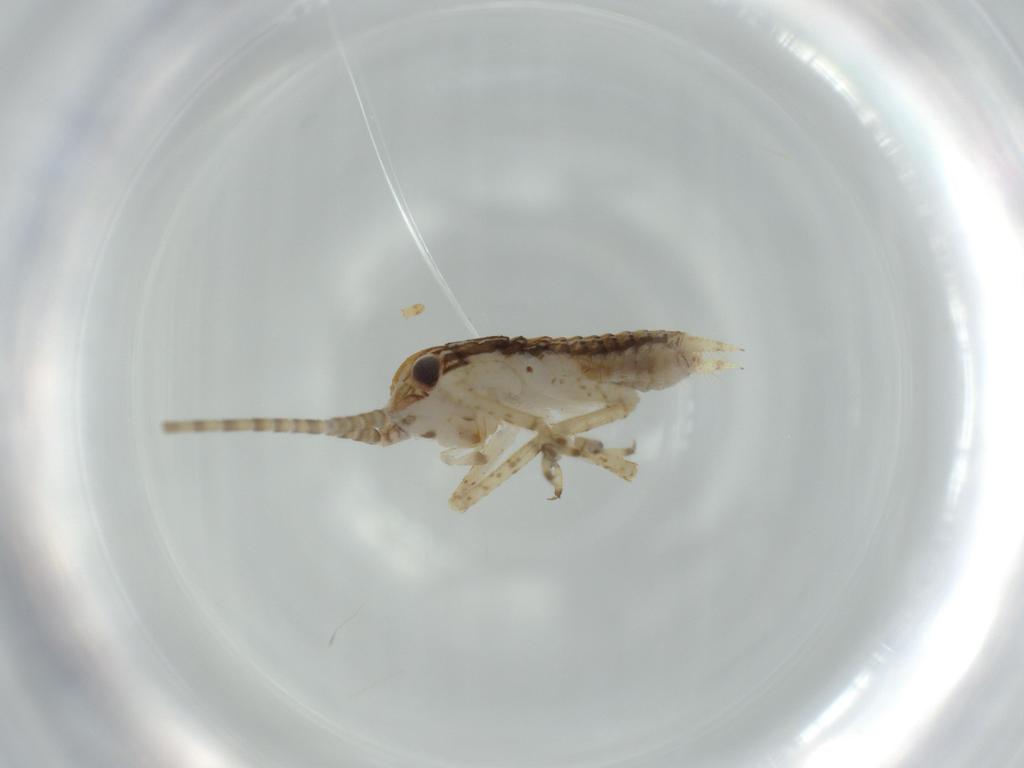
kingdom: Animalia
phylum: Arthropoda
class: Insecta
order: Orthoptera
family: Gryllidae
